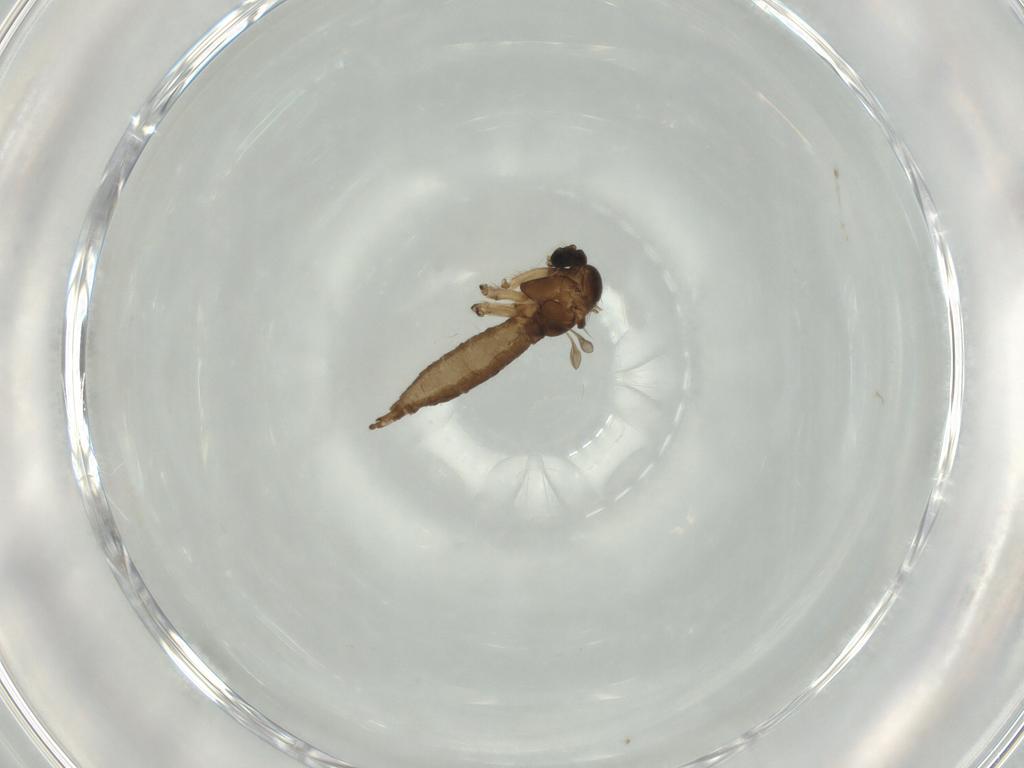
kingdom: Animalia
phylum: Arthropoda
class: Insecta
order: Diptera
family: Sciaridae
